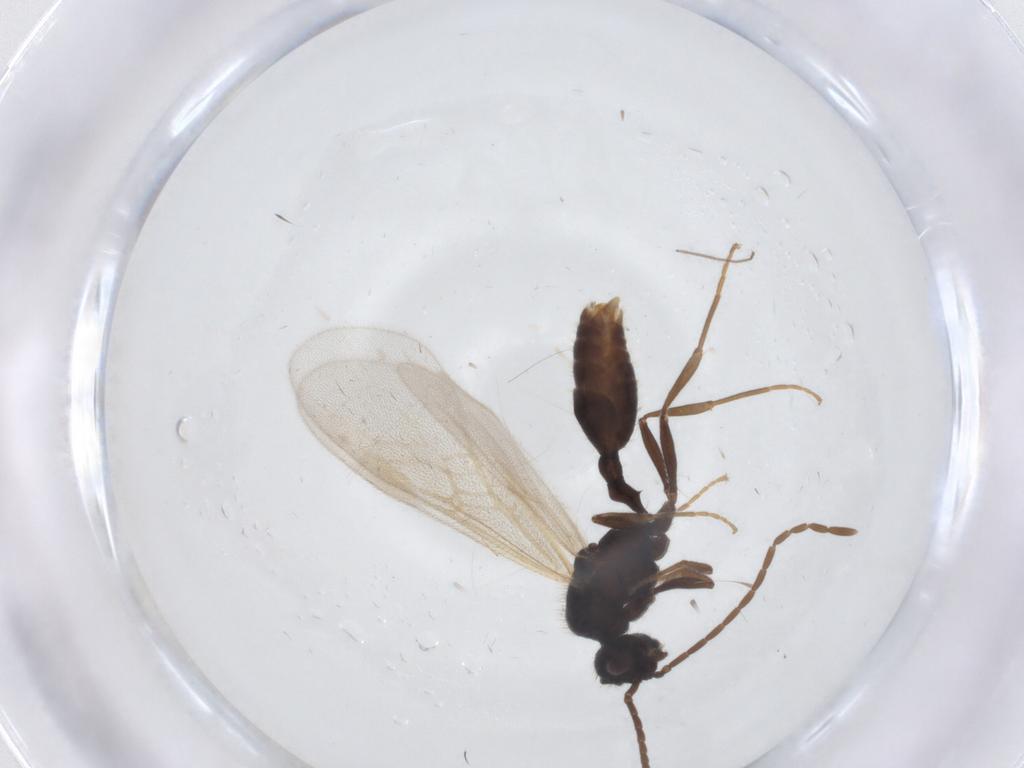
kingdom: Animalia
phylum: Arthropoda
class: Insecta
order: Hymenoptera
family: Formicidae
